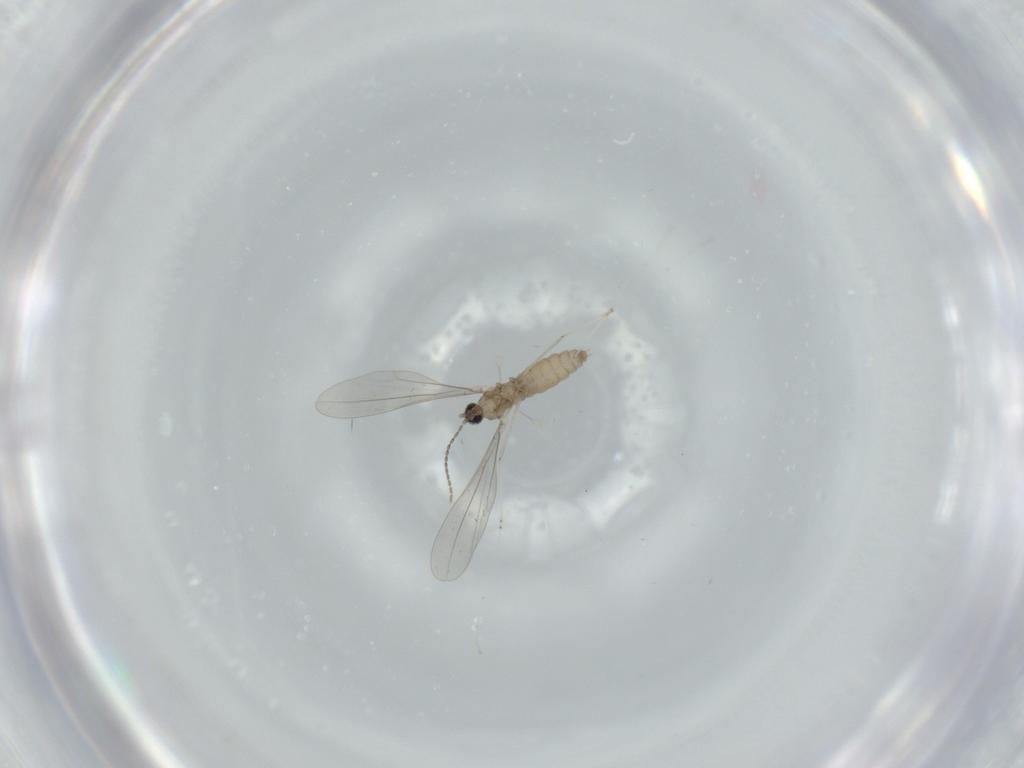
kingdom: Animalia
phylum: Arthropoda
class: Insecta
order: Diptera
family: Cecidomyiidae
